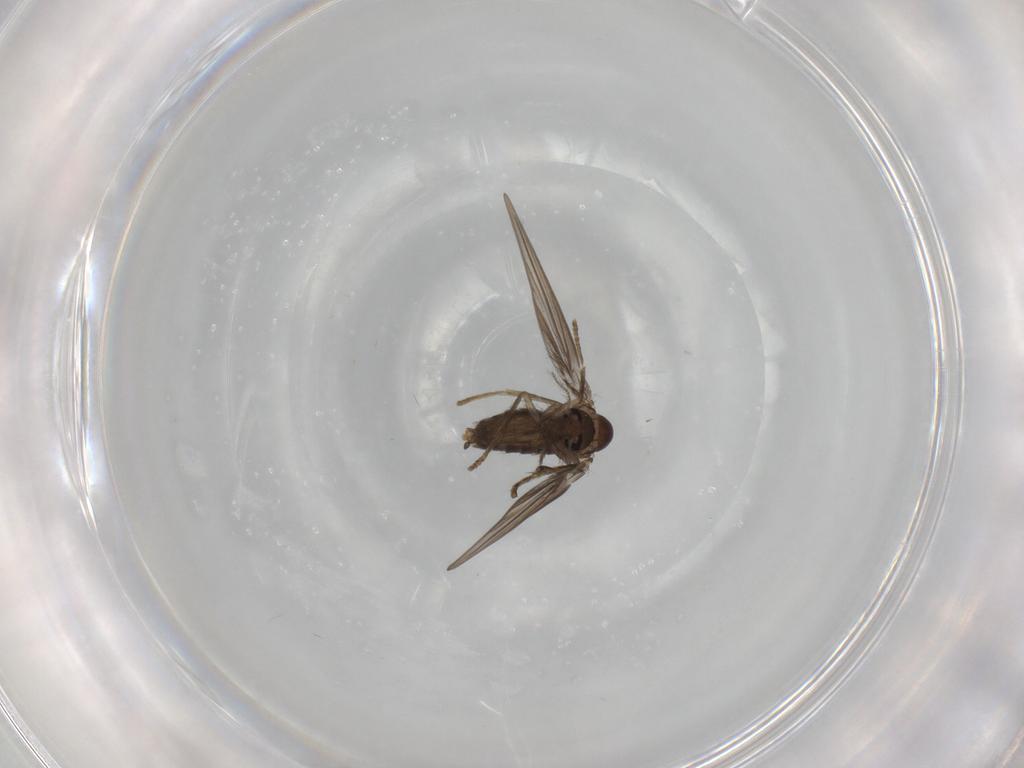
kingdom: Animalia
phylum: Arthropoda
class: Insecta
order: Diptera
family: Psychodidae
